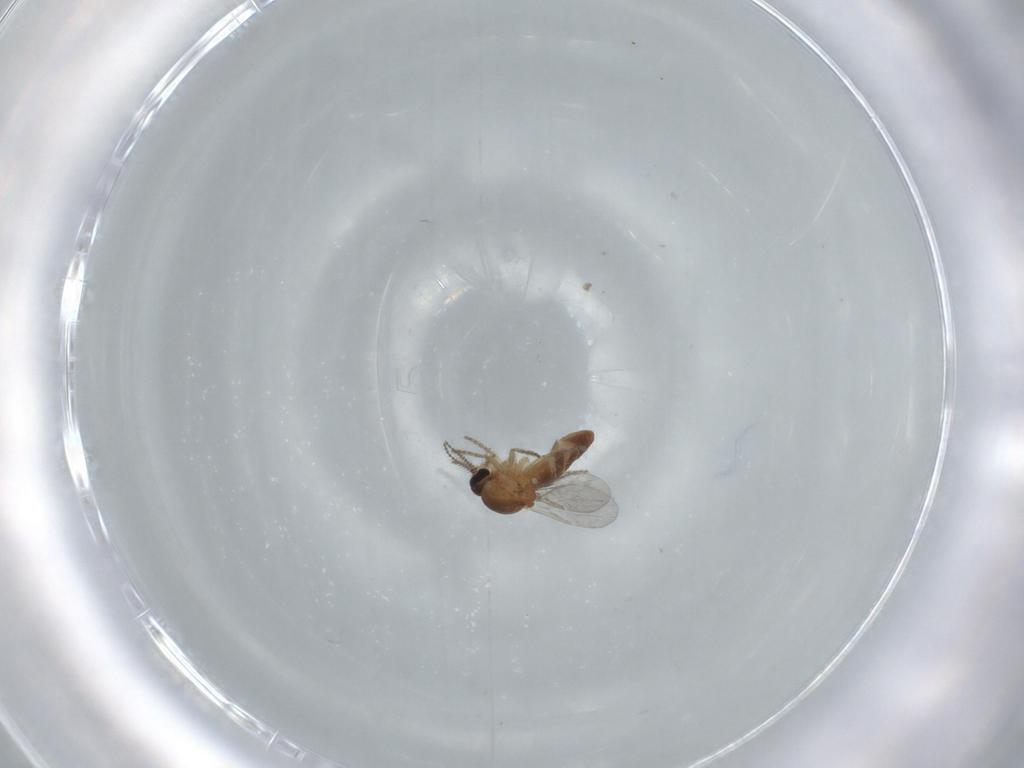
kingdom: Animalia
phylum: Arthropoda
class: Insecta
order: Diptera
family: Ceratopogonidae
